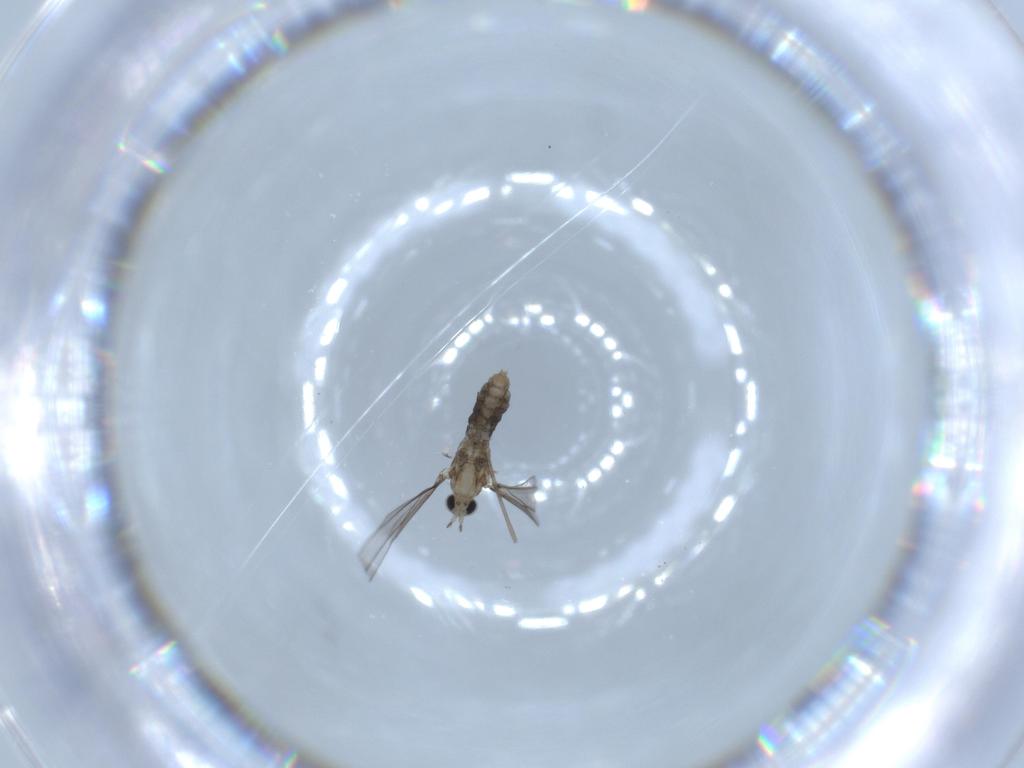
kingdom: Animalia
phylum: Arthropoda
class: Insecta
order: Diptera
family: Cecidomyiidae
